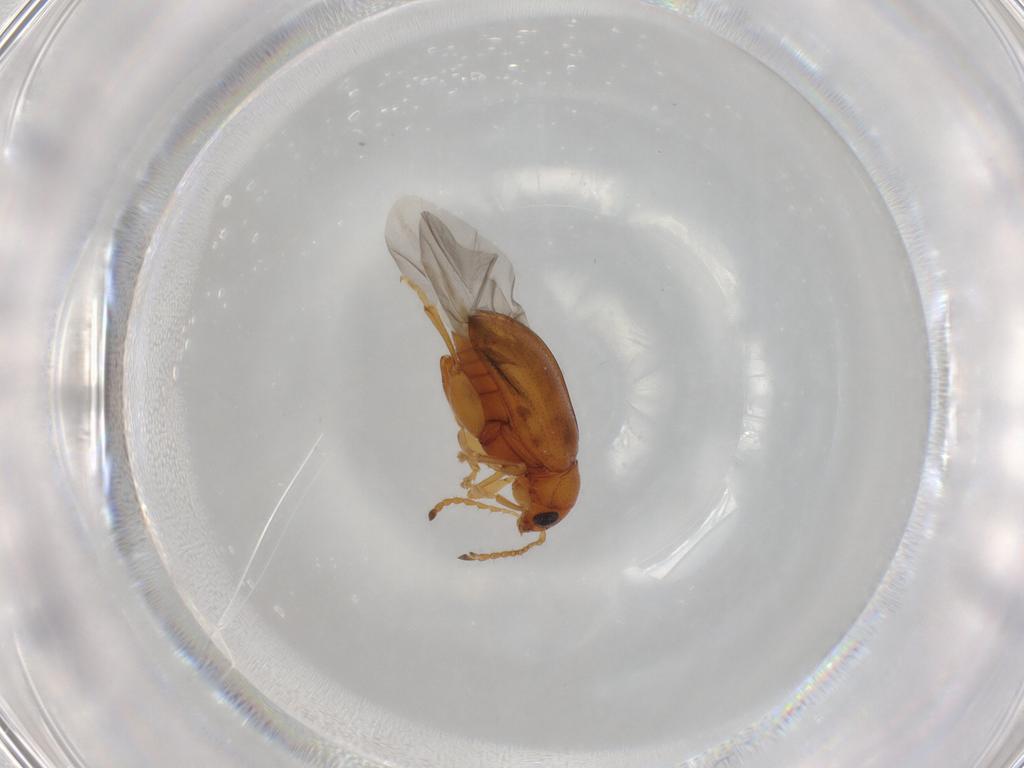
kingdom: Animalia
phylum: Arthropoda
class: Insecta
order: Coleoptera
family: Chrysomelidae
